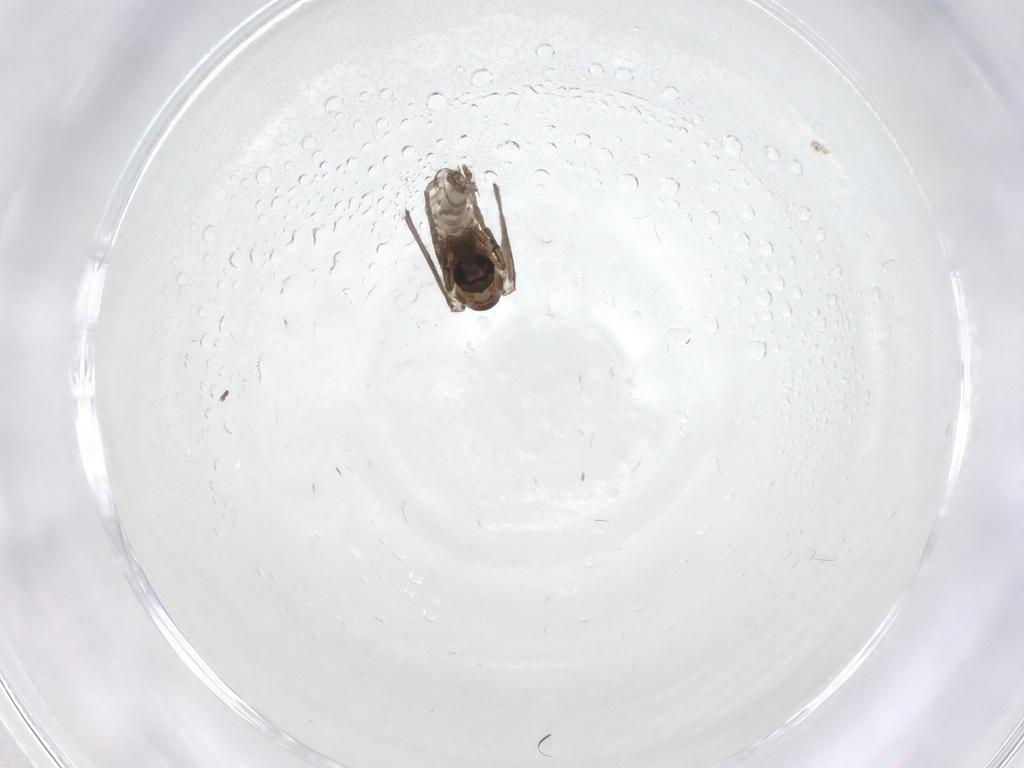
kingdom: Animalia
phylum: Arthropoda
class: Insecta
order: Diptera
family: Psychodidae
